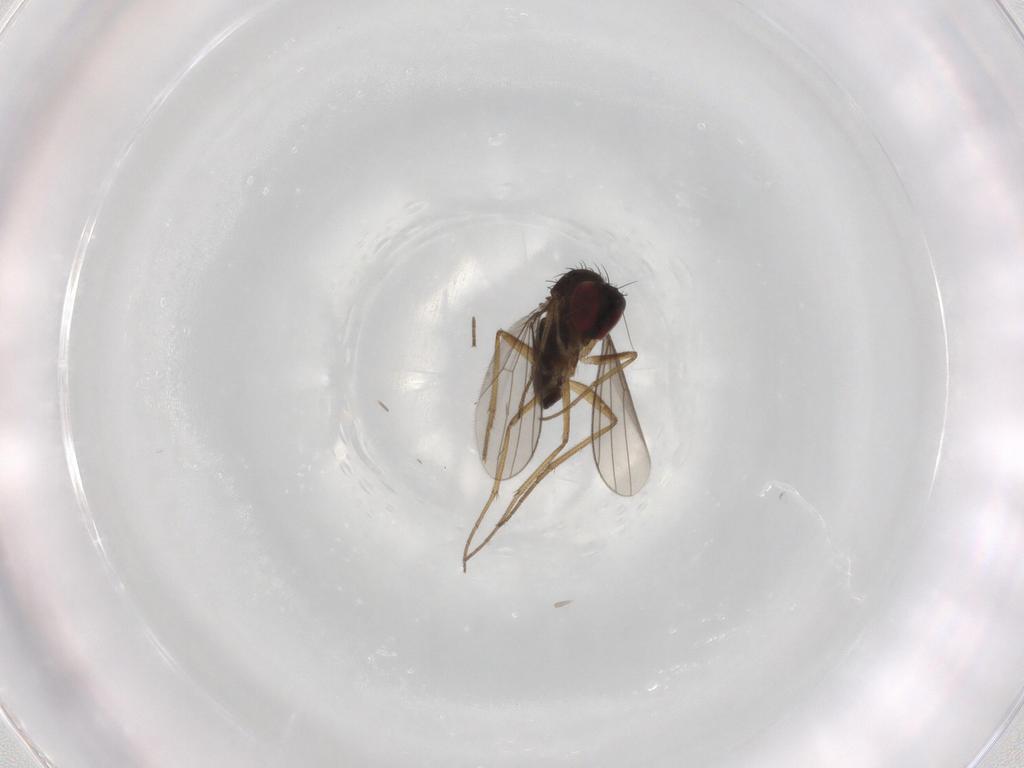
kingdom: Animalia
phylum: Arthropoda
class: Insecta
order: Diptera
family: Dolichopodidae
